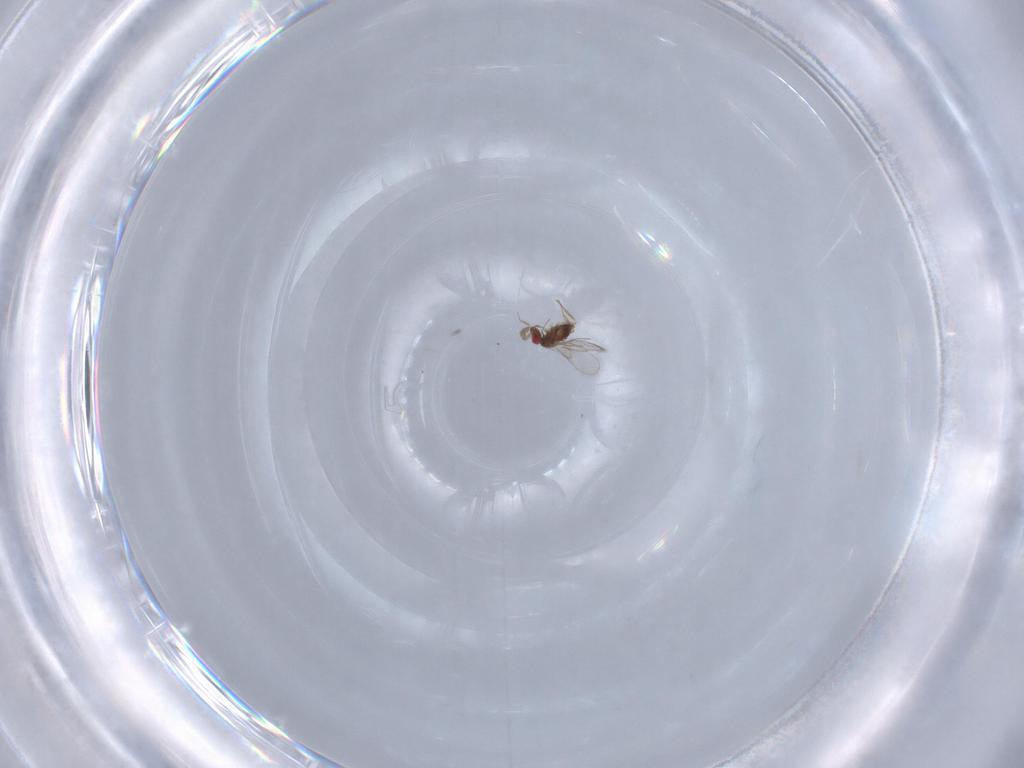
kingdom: Animalia
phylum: Arthropoda
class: Insecta
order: Hymenoptera
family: Trichogrammatidae
